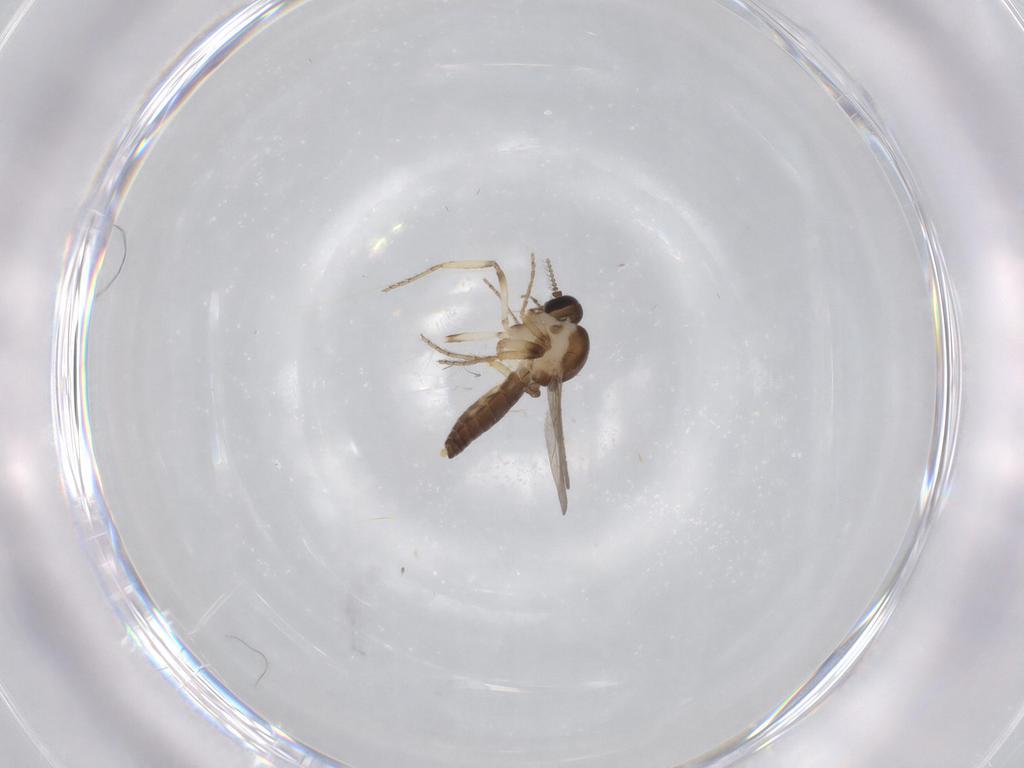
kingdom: Animalia
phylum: Arthropoda
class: Insecta
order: Diptera
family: Ceratopogonidae
